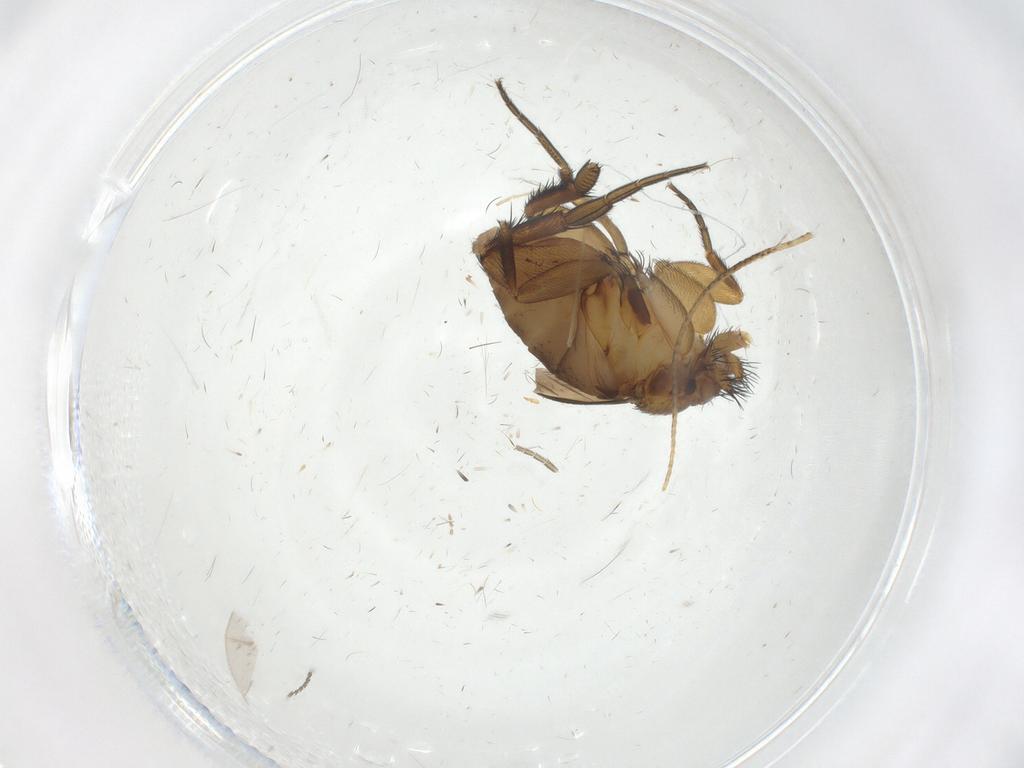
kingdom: Animalia
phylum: Arthropoda
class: Insecta
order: Diptera
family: Phoridae
